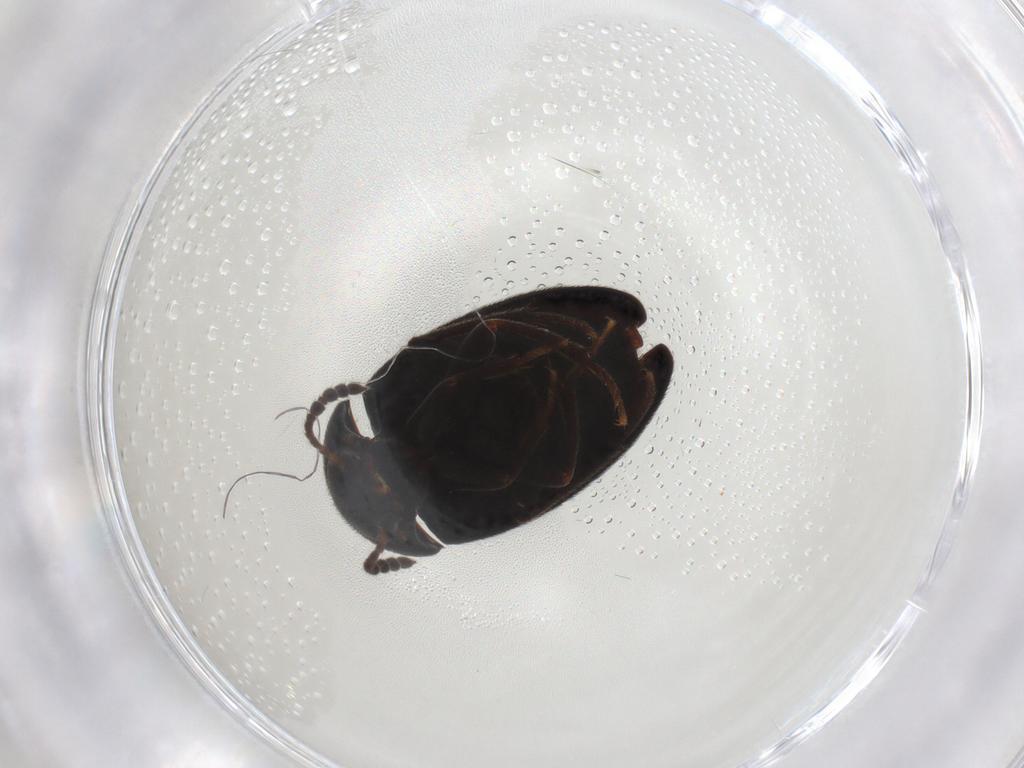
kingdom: Animalia
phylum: Arthropoda
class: Insecta
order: Coleoptera
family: Leiodidae
